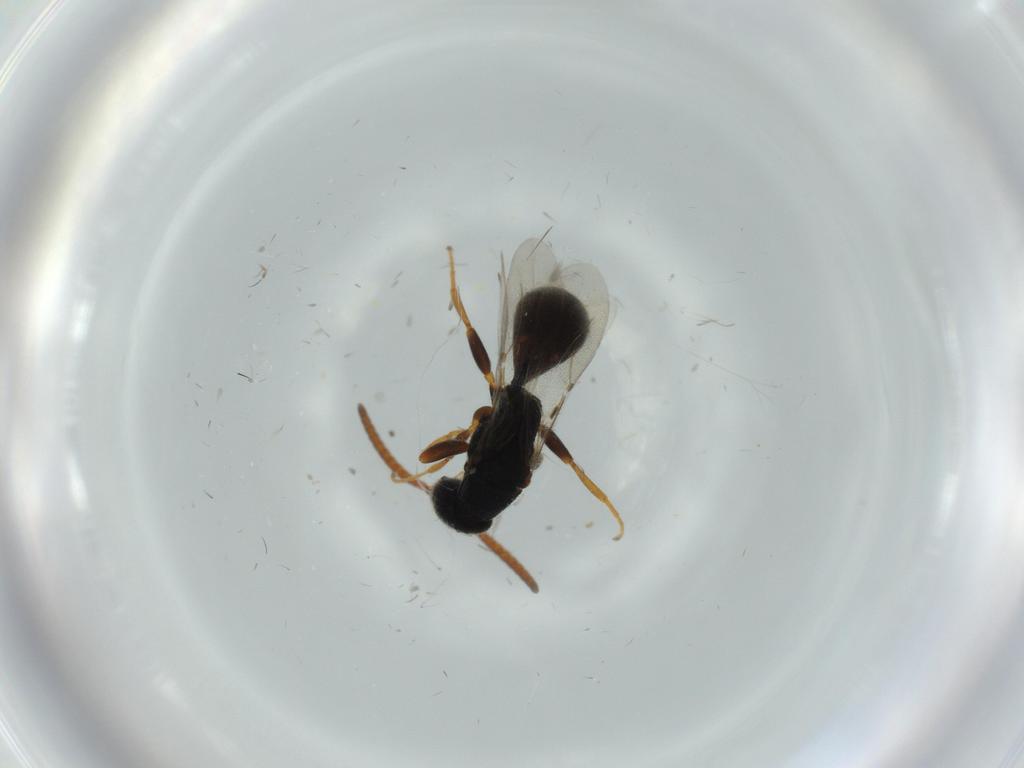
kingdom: Animalia
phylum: Arthropoda
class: Insecta
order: Hymenoptera
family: Bethylidae
